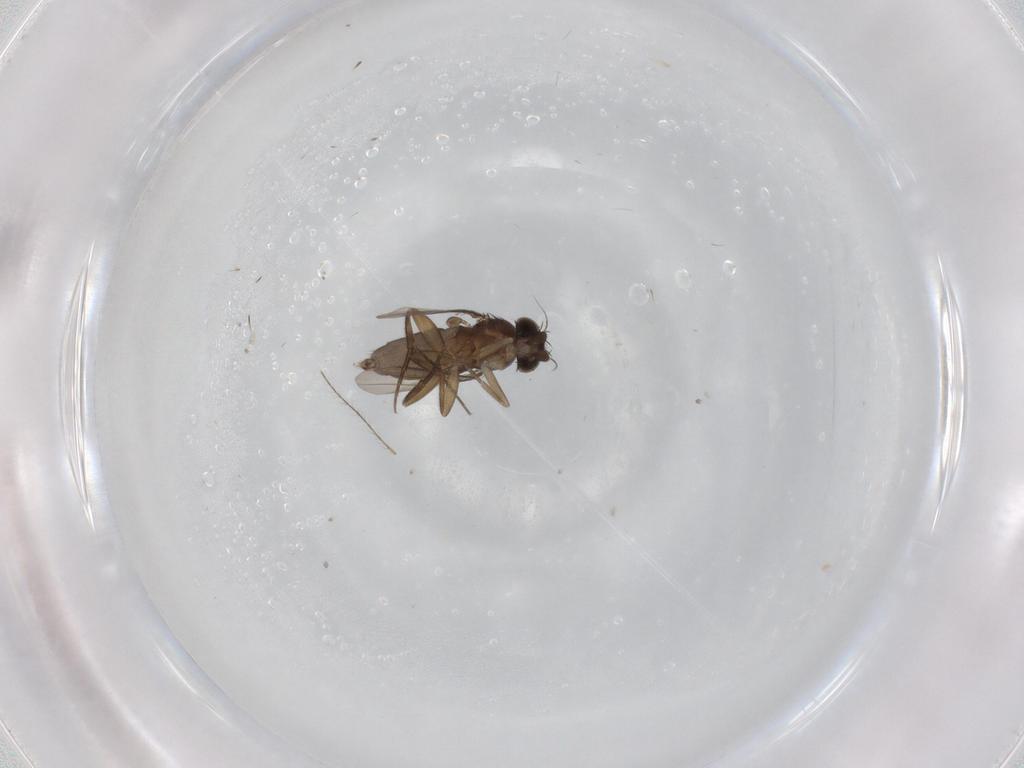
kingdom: Animalia
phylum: Arthropoda
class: Insecta
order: Diptera
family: Phoridae
